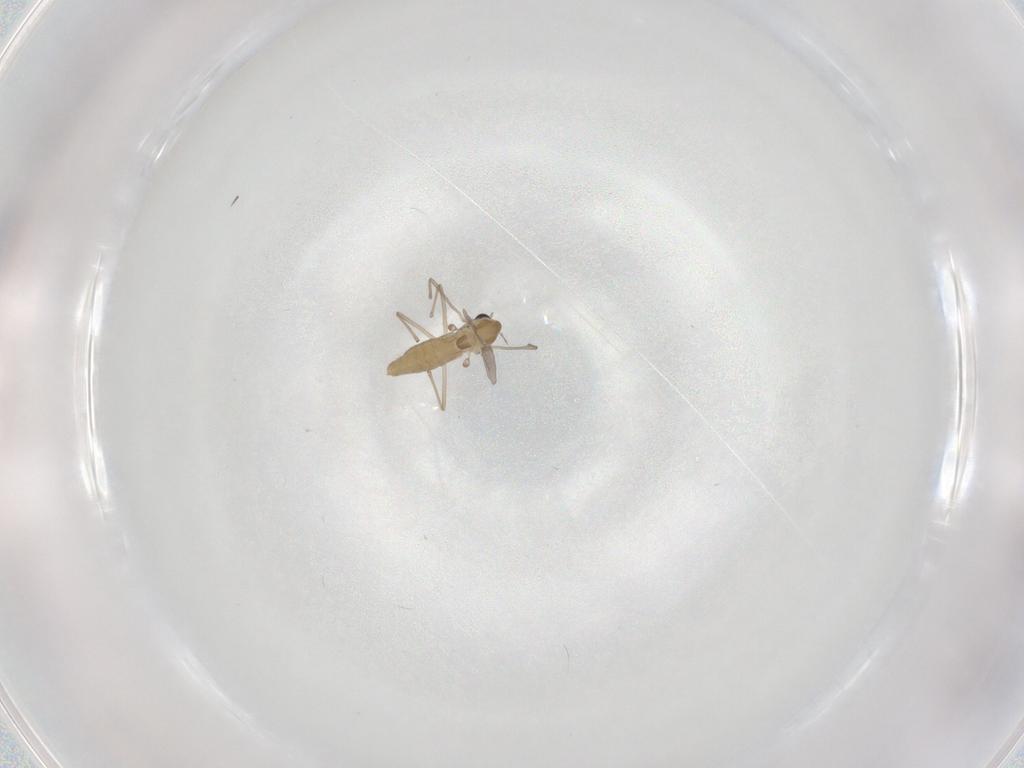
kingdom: Animalia
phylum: Arthropoda
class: Insecta
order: Diptera
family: Chironomidae
